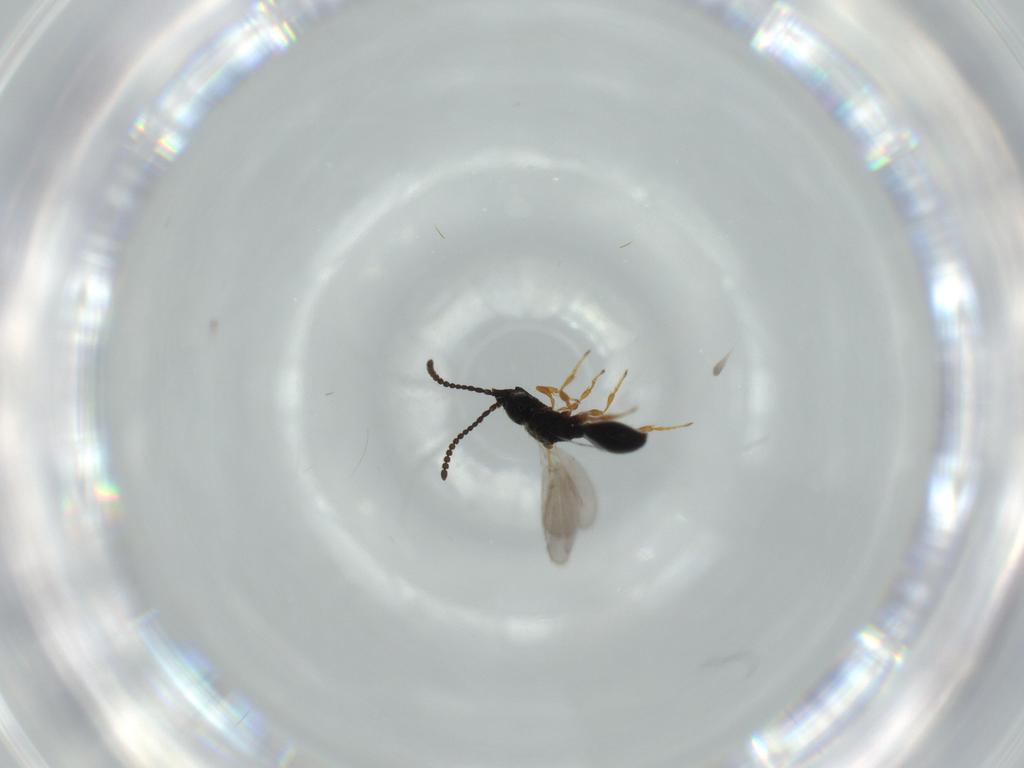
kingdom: Animalia
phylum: Arthropoda
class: Insecta
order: Hymenoptera
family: Diapriidae
